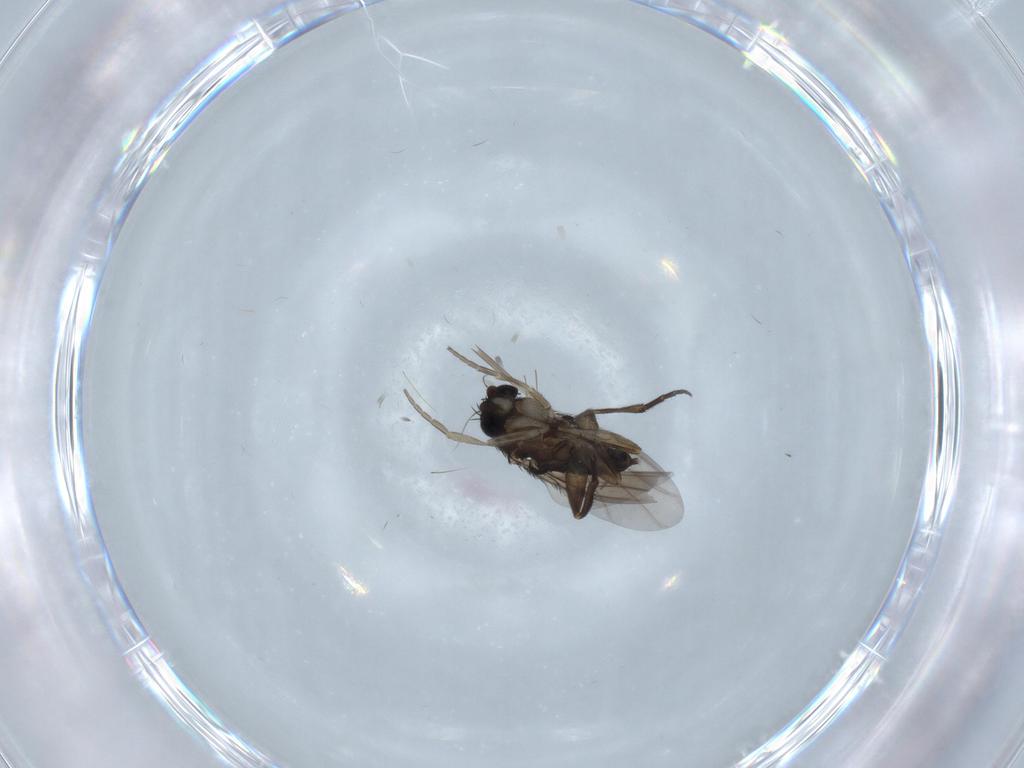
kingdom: Animalia
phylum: Arthropoda
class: Insecta
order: Diptera
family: Phoridae
